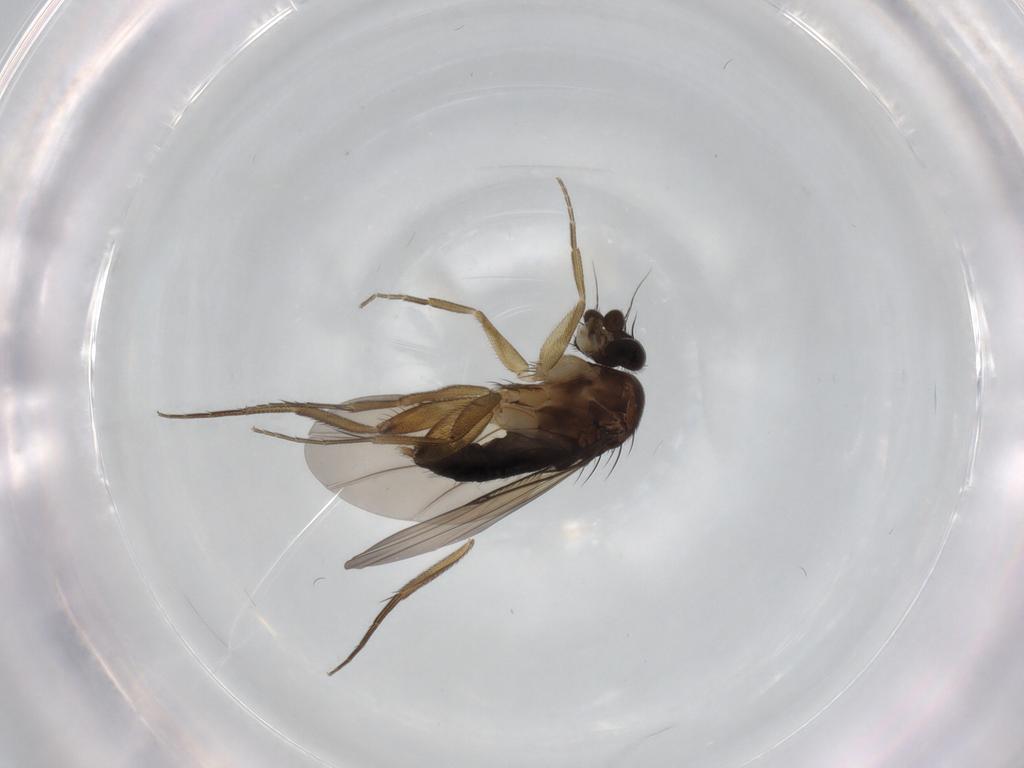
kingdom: Animalia
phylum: Arthropoda
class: Insecta
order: Diptera
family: Phoridae
